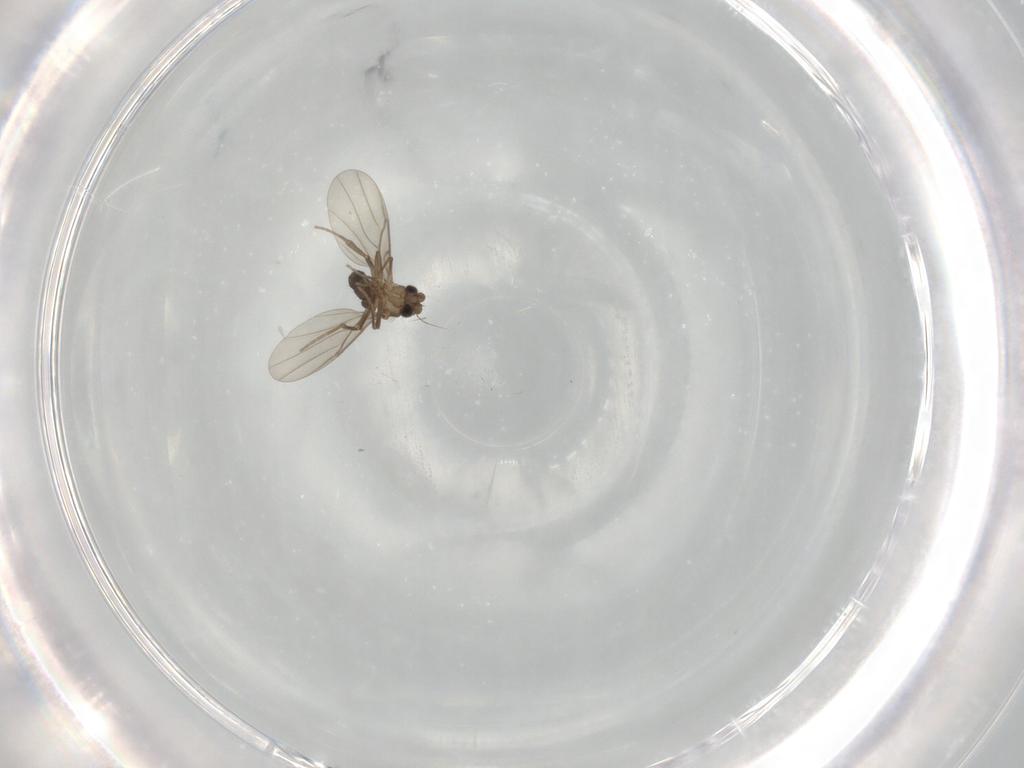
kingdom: Animalia
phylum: Arthropoda
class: Insecta
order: Diptera
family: Phoridae
